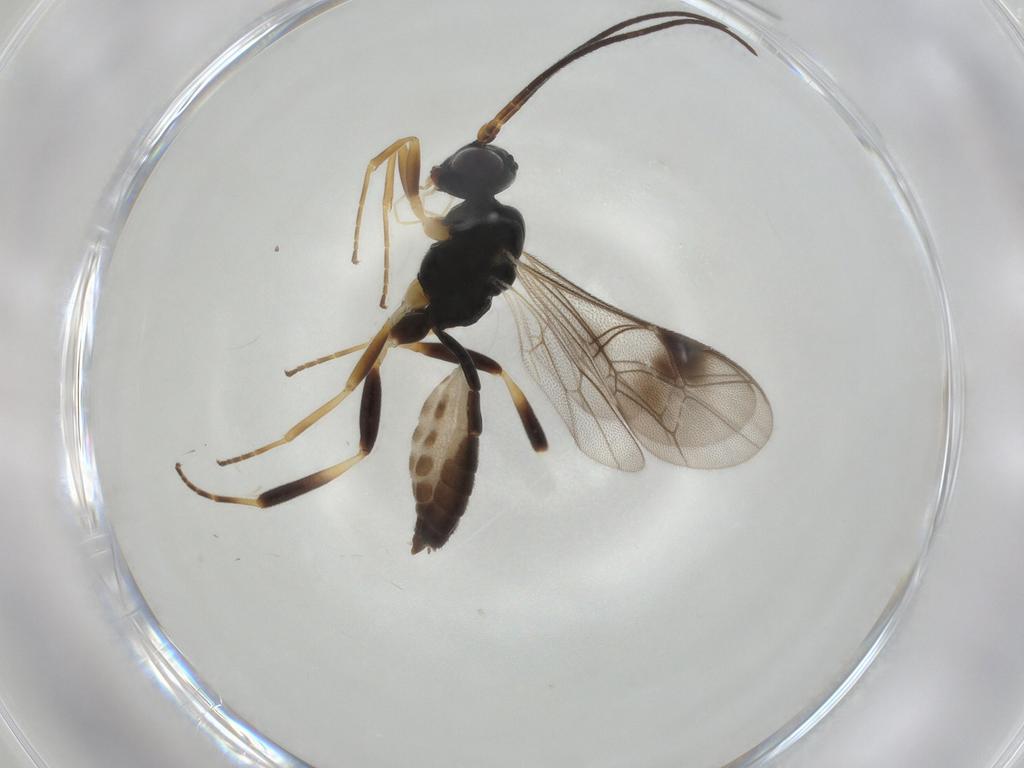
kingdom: Animalia
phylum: Arthropoda
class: Insecta
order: Hymenoptera
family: Ichneumonidae
